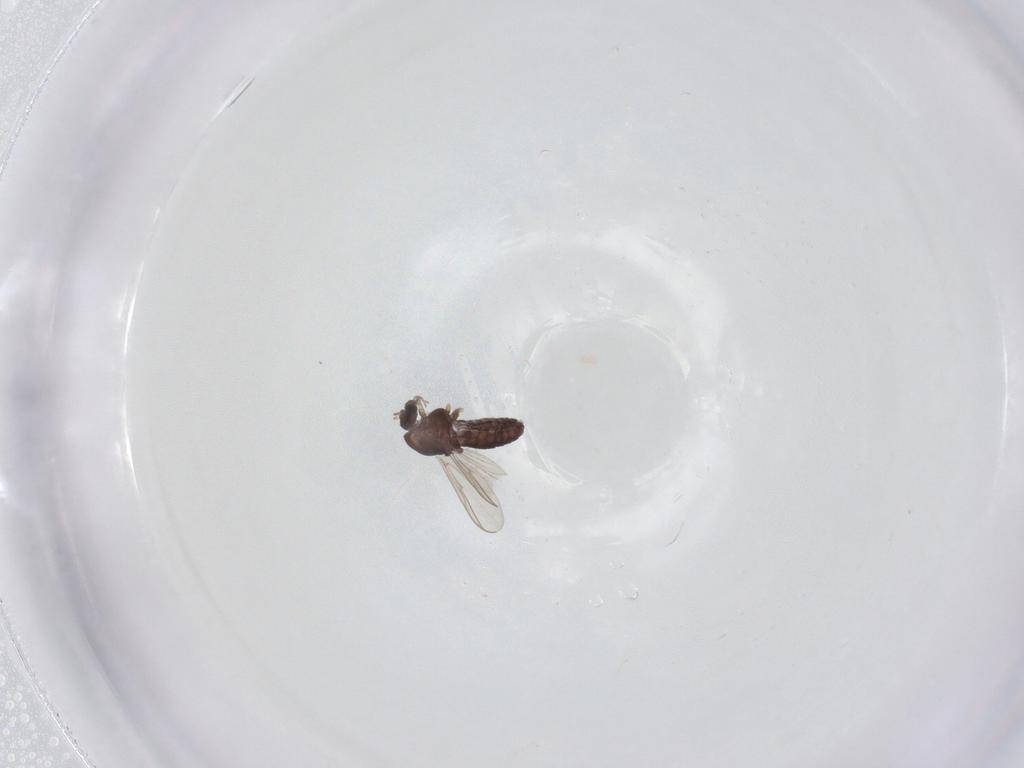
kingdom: Animalia
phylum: Arthropoda
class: Insecta
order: Diptera
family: Chironomidae
